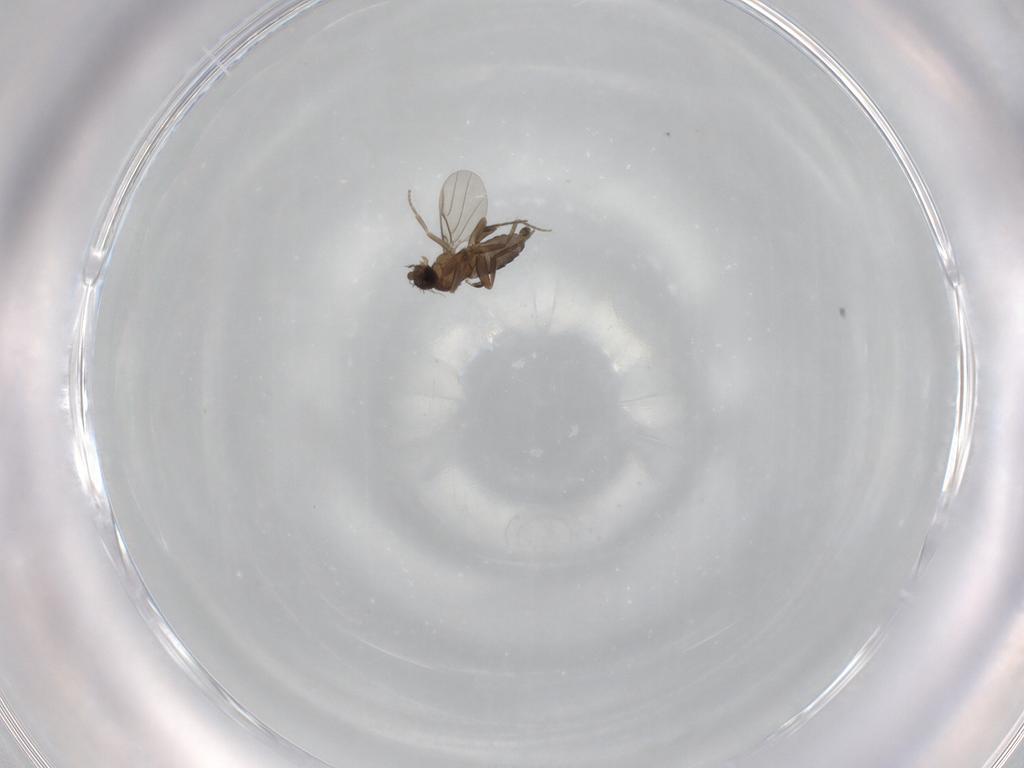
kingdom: Animalia
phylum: Arthropoda
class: Insecta
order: Diptera
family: Phoridae
